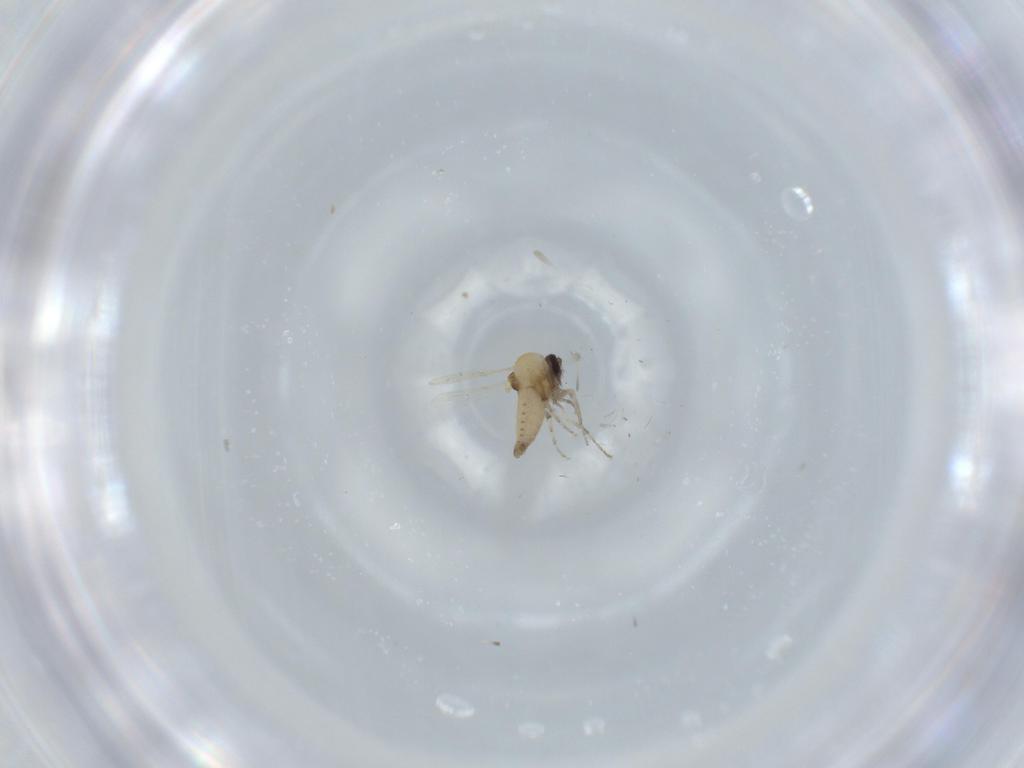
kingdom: Animalia
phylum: Arthropoda
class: Insecta
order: Diptera
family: Ceratopogonidae
